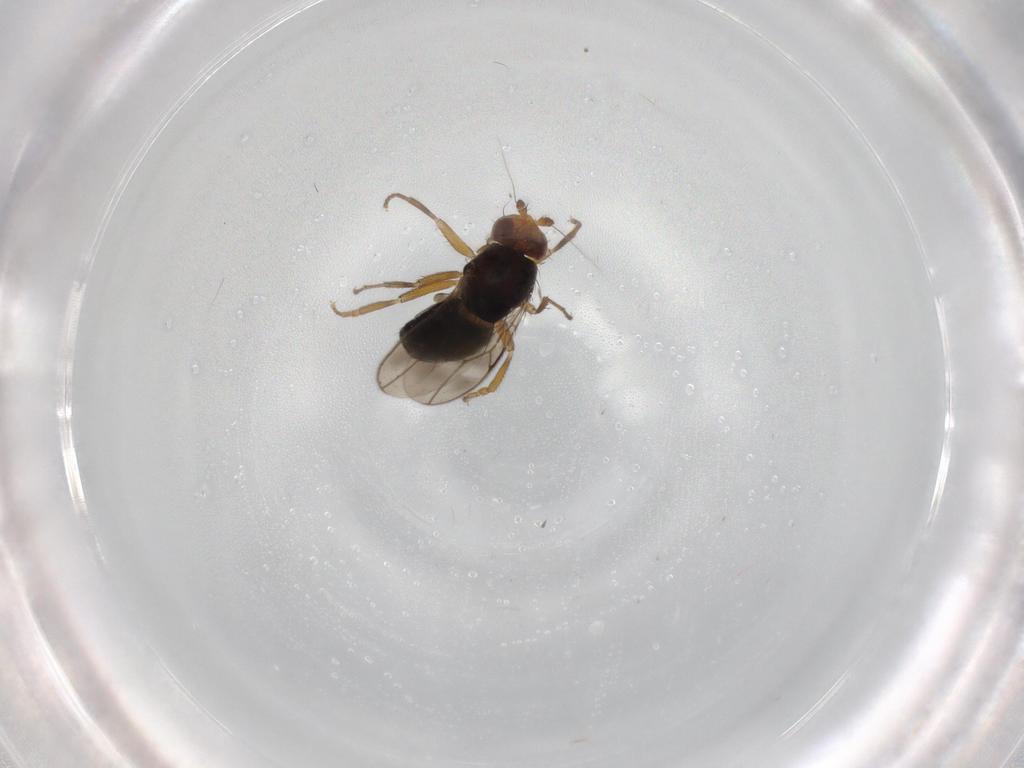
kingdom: Animalia
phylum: Arthropoda
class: Insecta
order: Diptera
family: Sphaeroceridae
